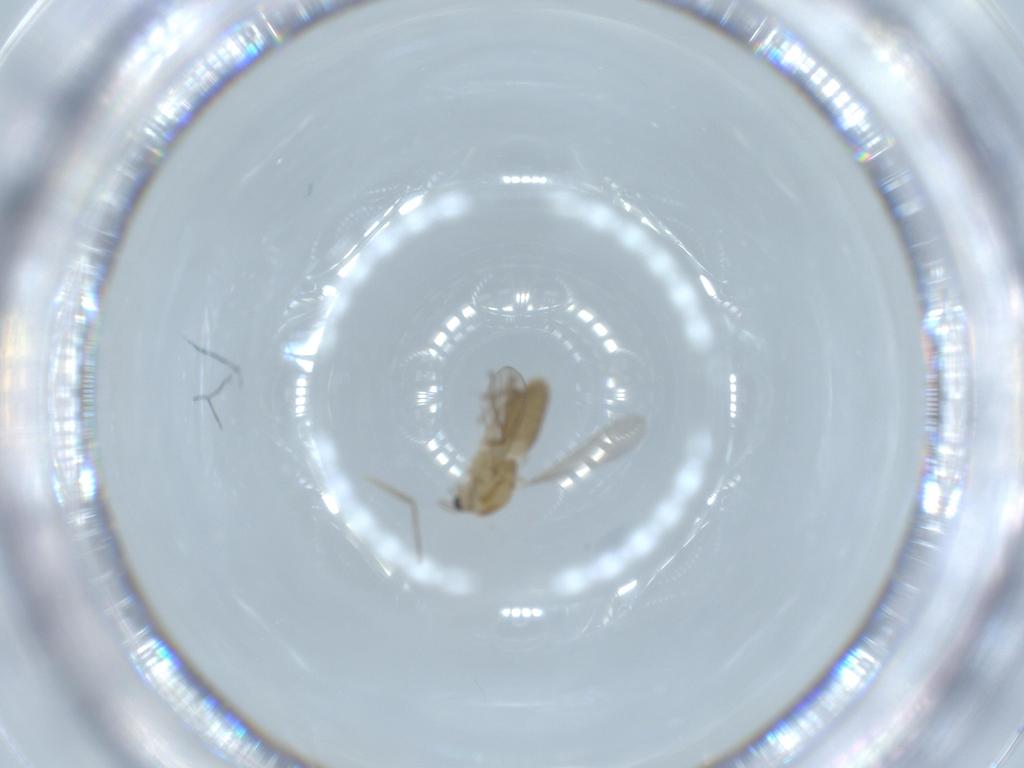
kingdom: Animalia
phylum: Arthropoda
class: Insecta
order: Diptera
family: Chironomidae
